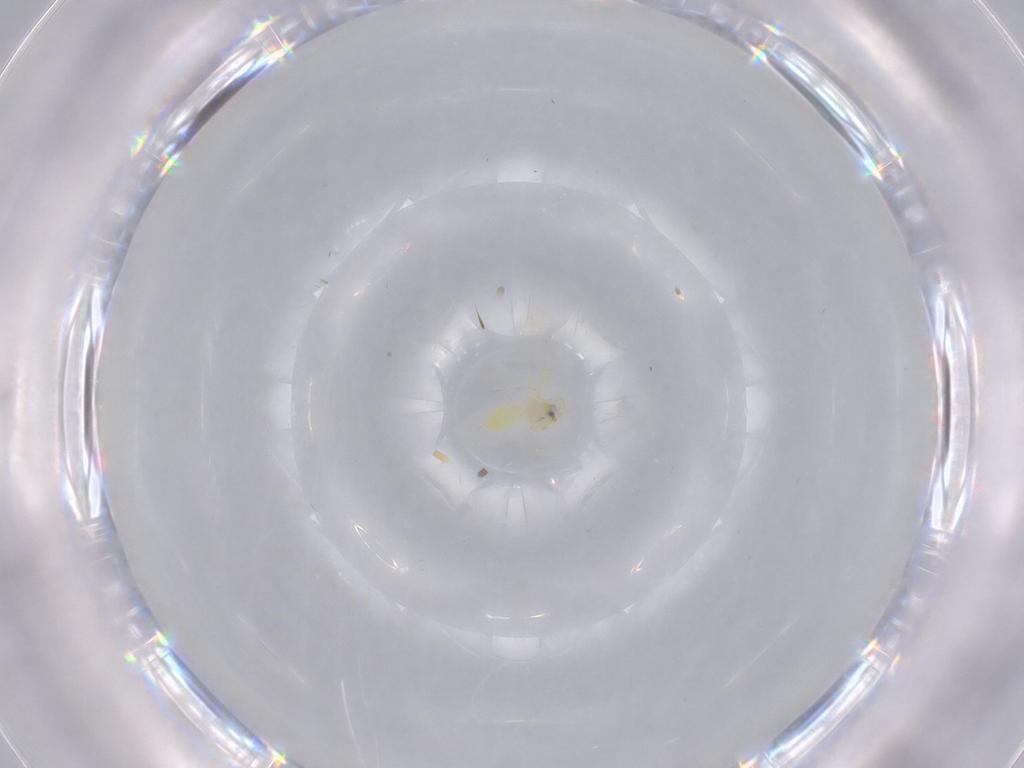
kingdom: Animalia
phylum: Arthropoda
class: Insecta
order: Hemiptera
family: Aleyrodidae
